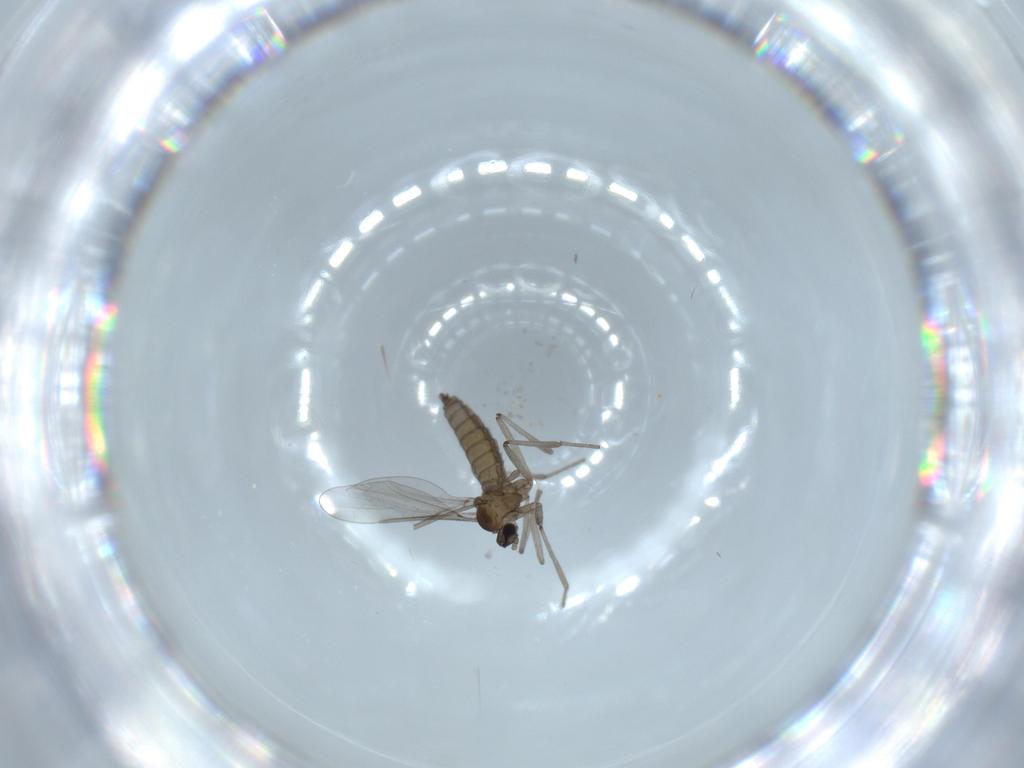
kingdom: Animalia
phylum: Arthropoda
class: Insecta
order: Diptera
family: Cecidomyiidae
